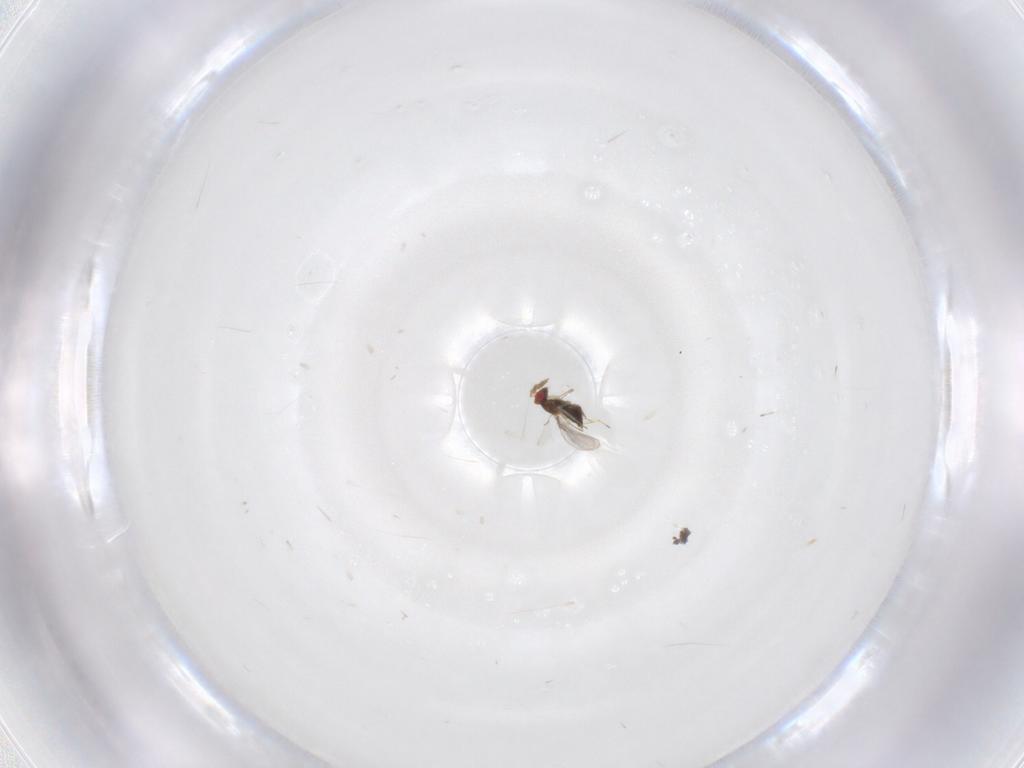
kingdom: Animalia
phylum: Arthropoda
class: Insecta
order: Hymenoptera
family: Trichogrammatidae
